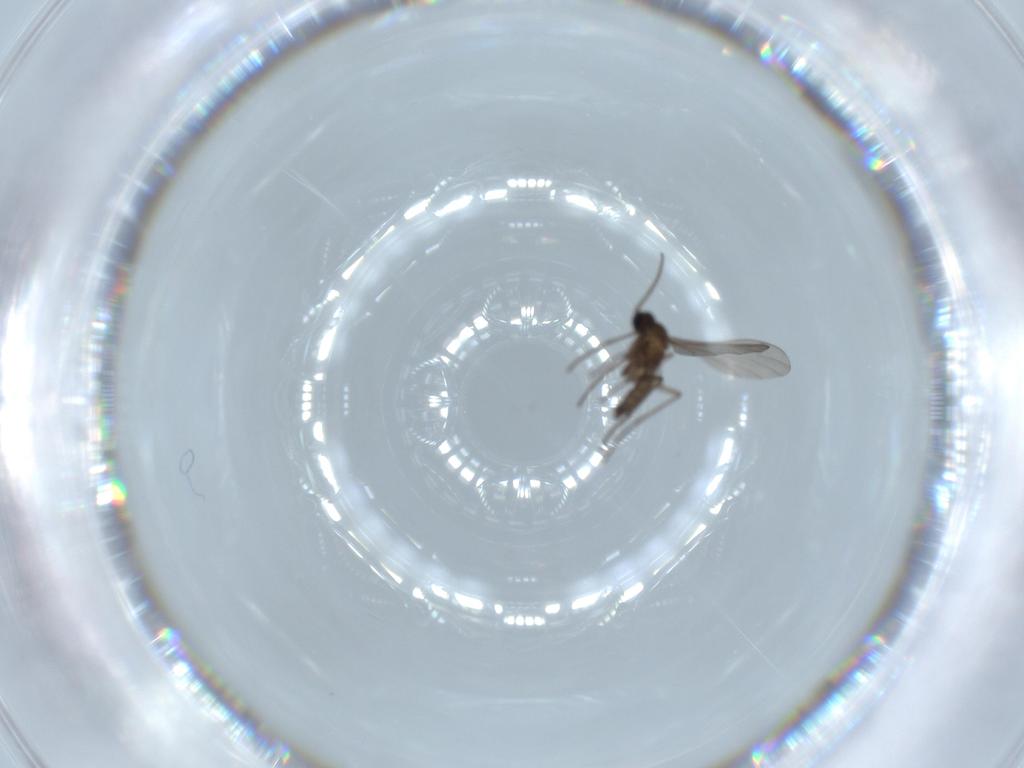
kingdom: Animalia
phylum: Arthropoda
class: Insecta
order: Diptera
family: Sciaridae
